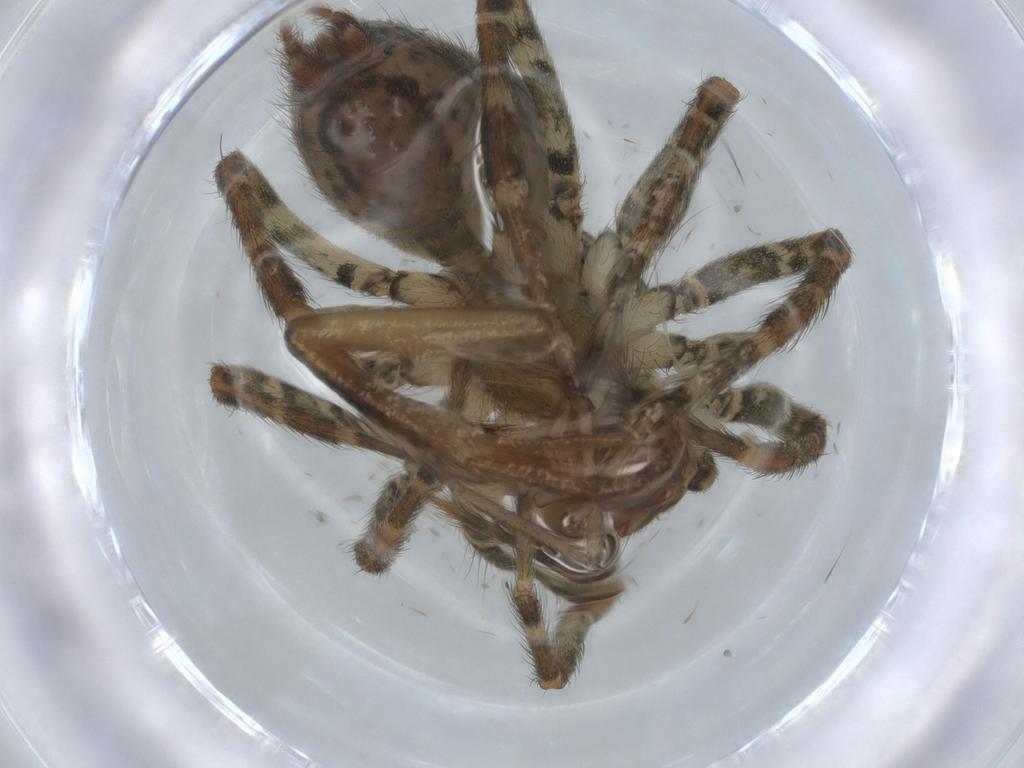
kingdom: Animalia
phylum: Arthropoda
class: Arachnida
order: Araneae
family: Agelenidae
